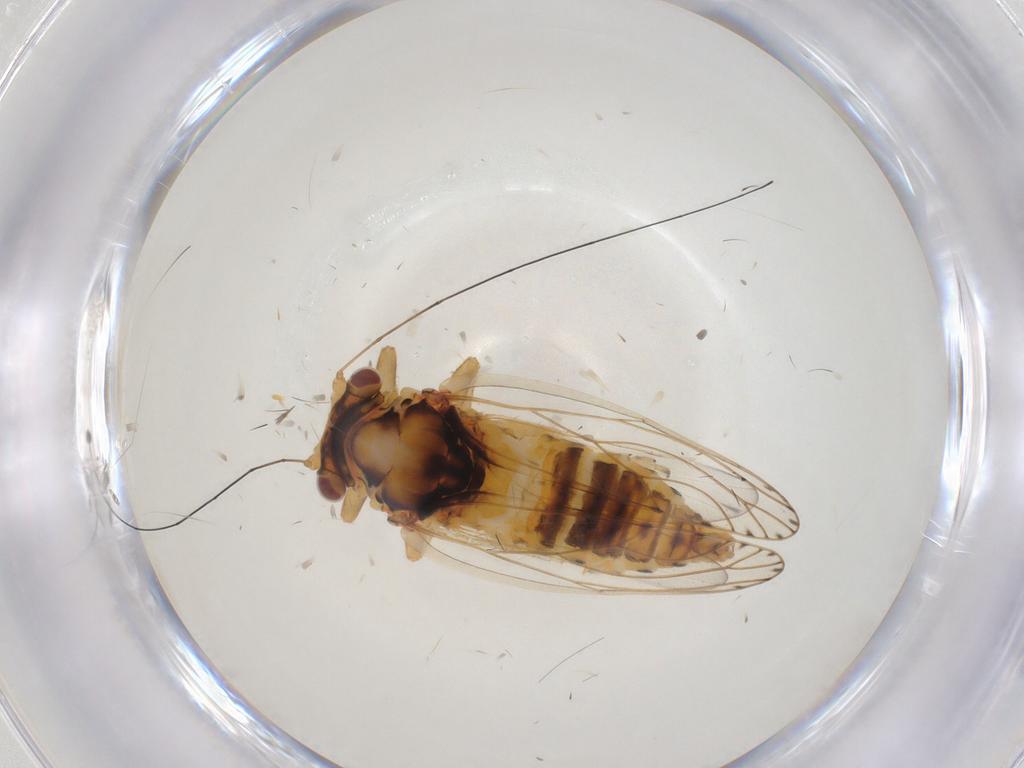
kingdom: Animalia
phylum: Arthropoda
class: Insecta
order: Hemiptera
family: Psylloidea_incertae_sedis
